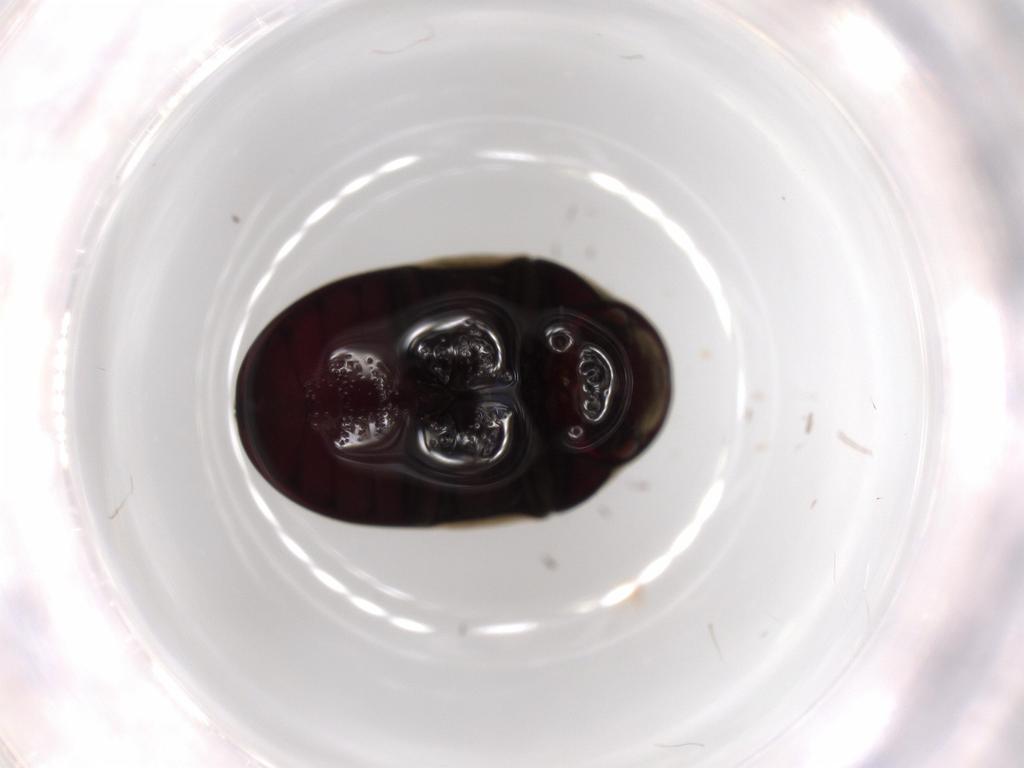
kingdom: Animalia
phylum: Arthropoda
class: Insecta
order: Coleoptera
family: Ptinidae
